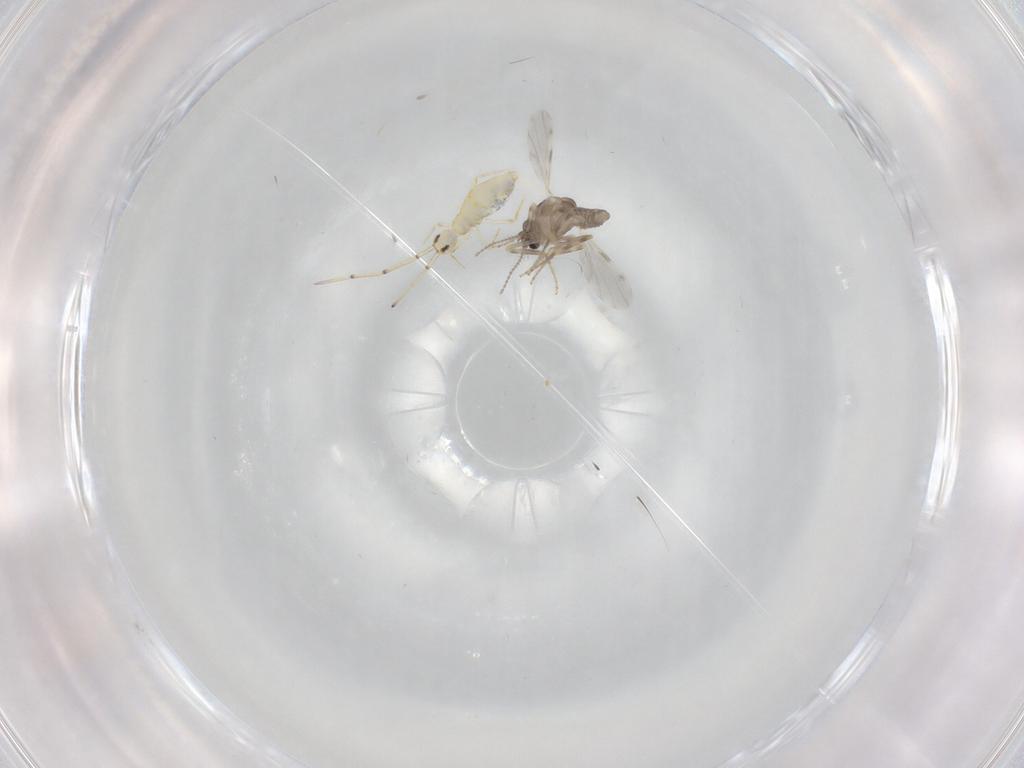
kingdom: Animalia
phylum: Arthropoda
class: Insecta
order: Diptera
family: Ceratopogonidae
